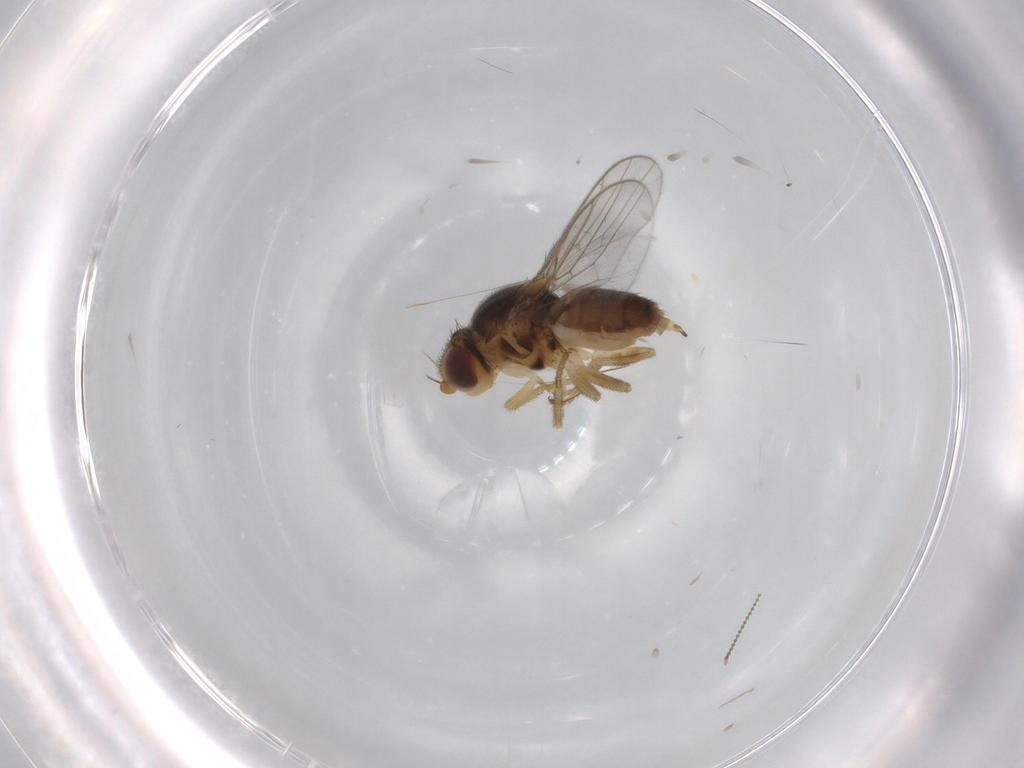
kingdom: Animalia
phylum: Arthropoda
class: Insecta
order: Diptera
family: Chloropidae
